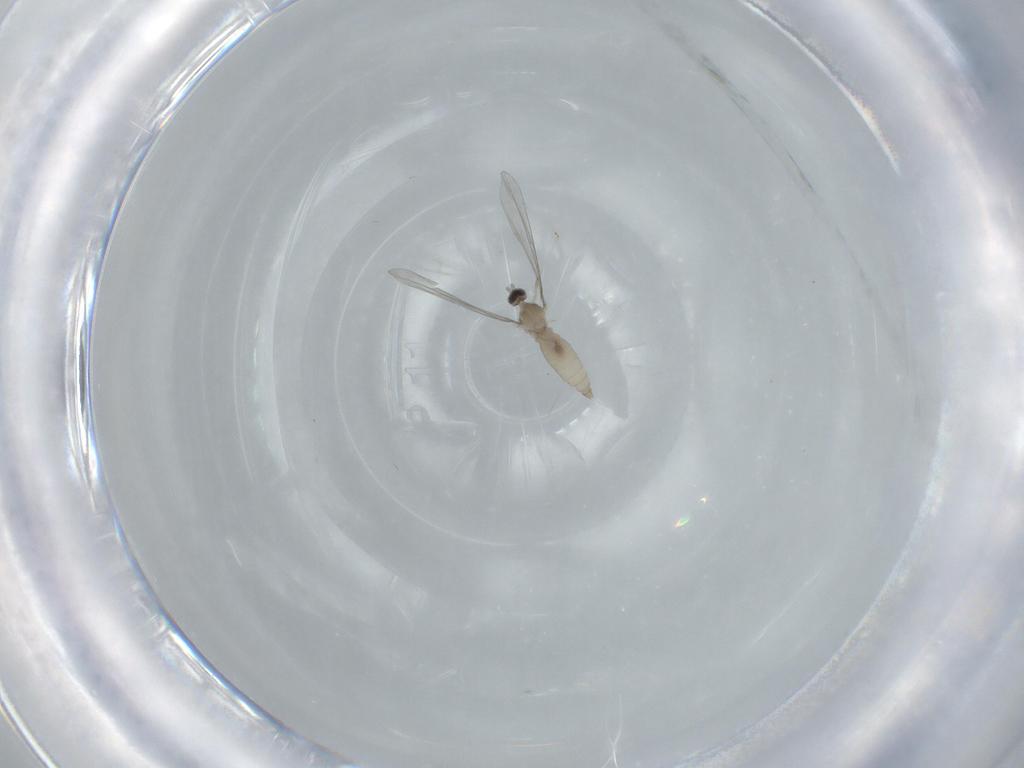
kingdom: Animalia
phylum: Arthropoda
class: Insecta
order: Diptera
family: Cecidomyiidae
